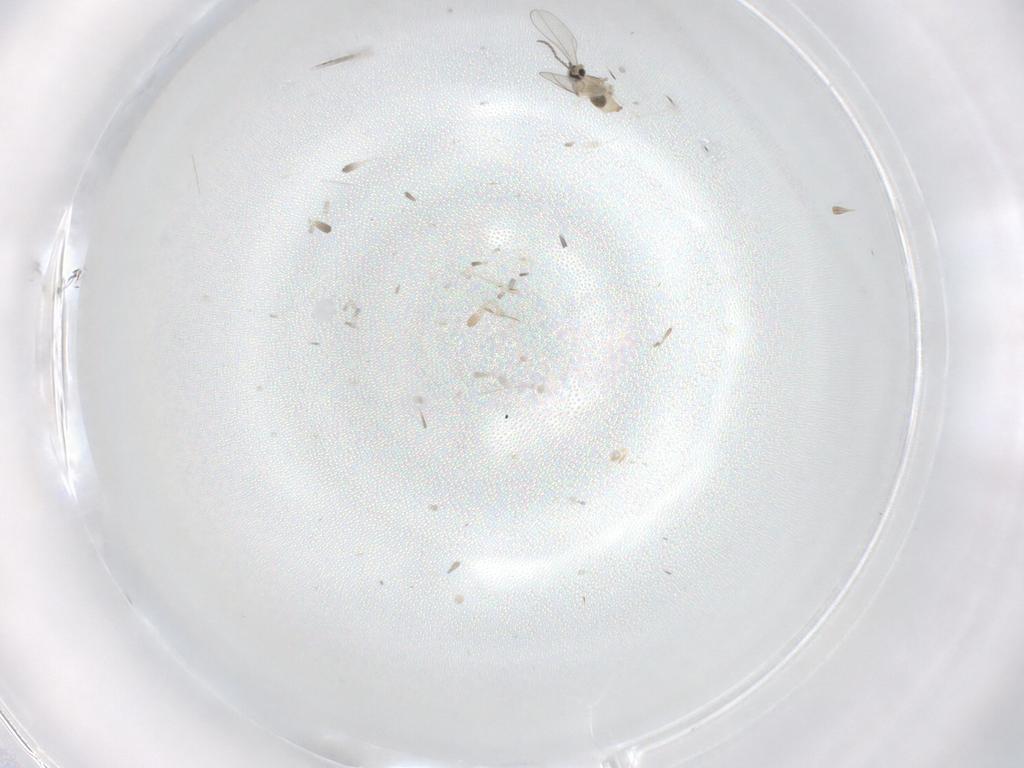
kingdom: Animalia
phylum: Arthropoda
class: Insecta
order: Diptera
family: Cecidomyiidae
